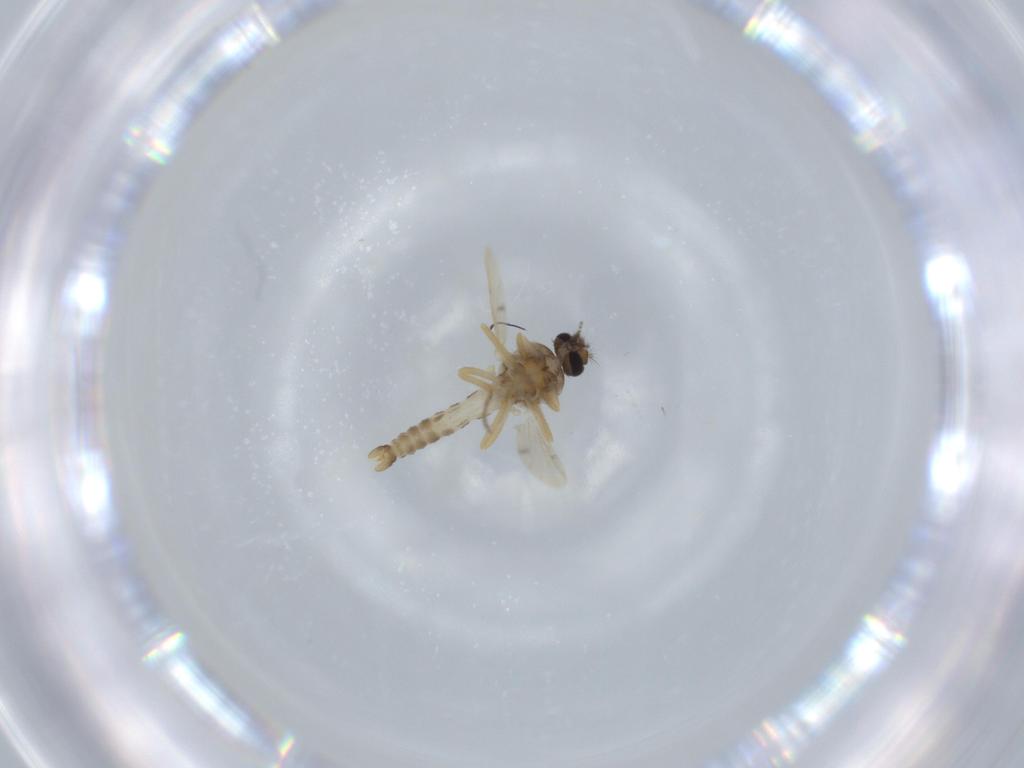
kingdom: Animalia
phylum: Arthropoda
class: Insecta
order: Diptera
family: Ceratopogonidae
